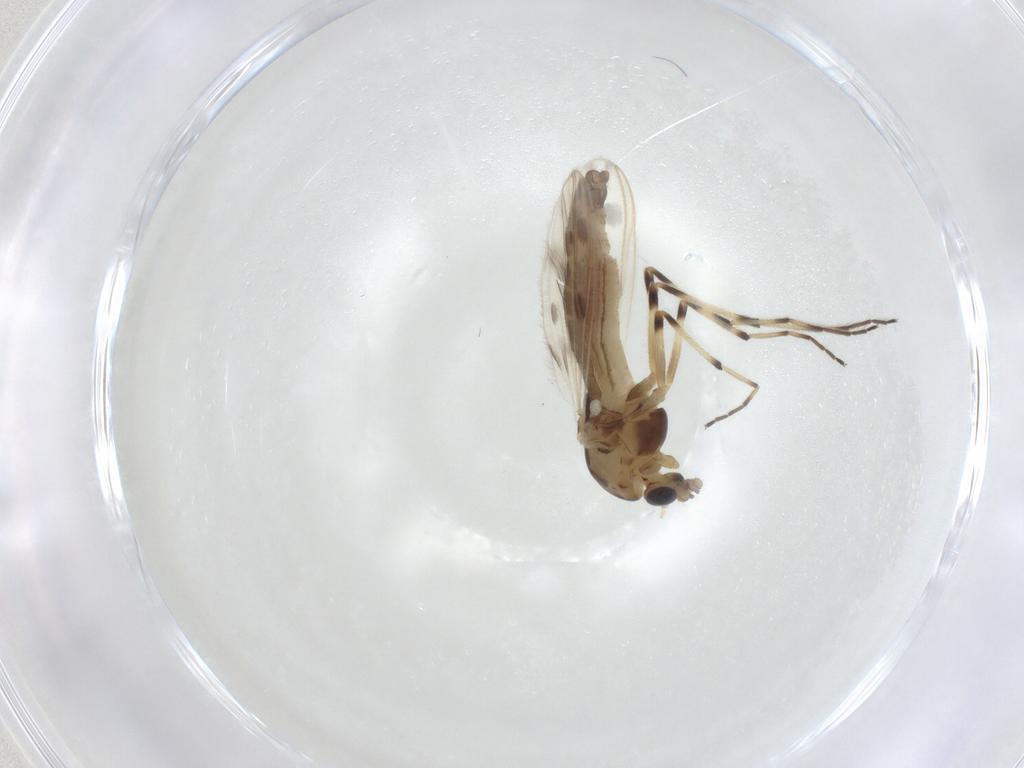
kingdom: Animalia
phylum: Arthropoda
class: Insecta
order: Diptera
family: Chironomidae
